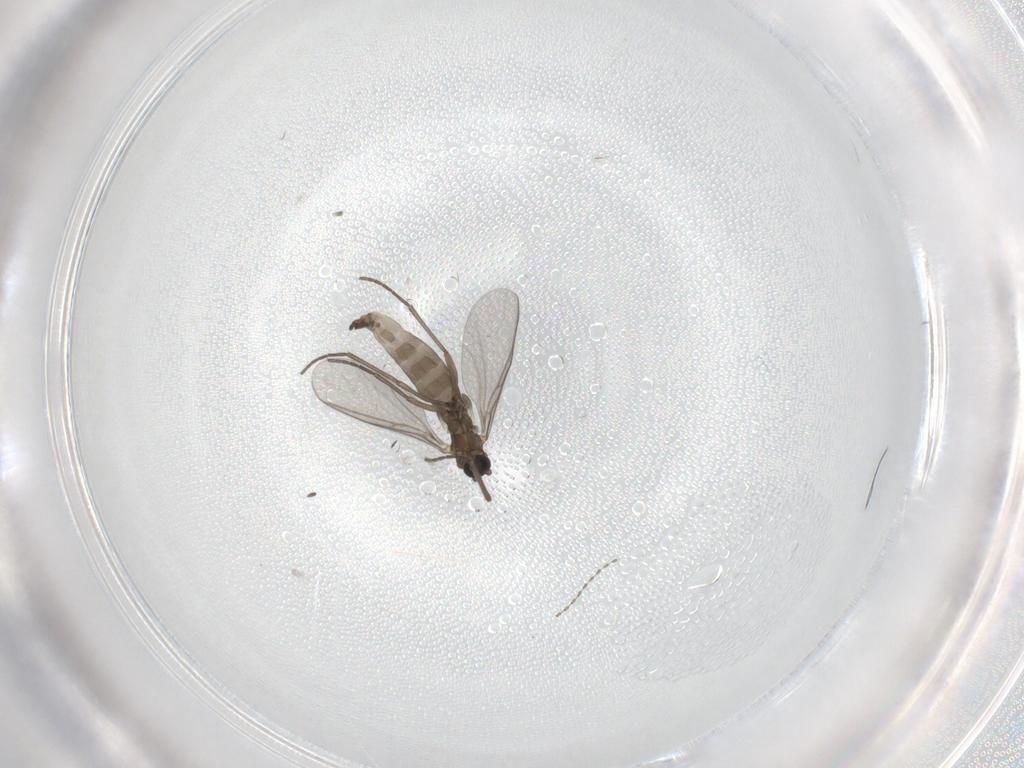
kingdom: Animalia
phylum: Arthropoda
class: Insecta
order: Diptera
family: Sciaridae
